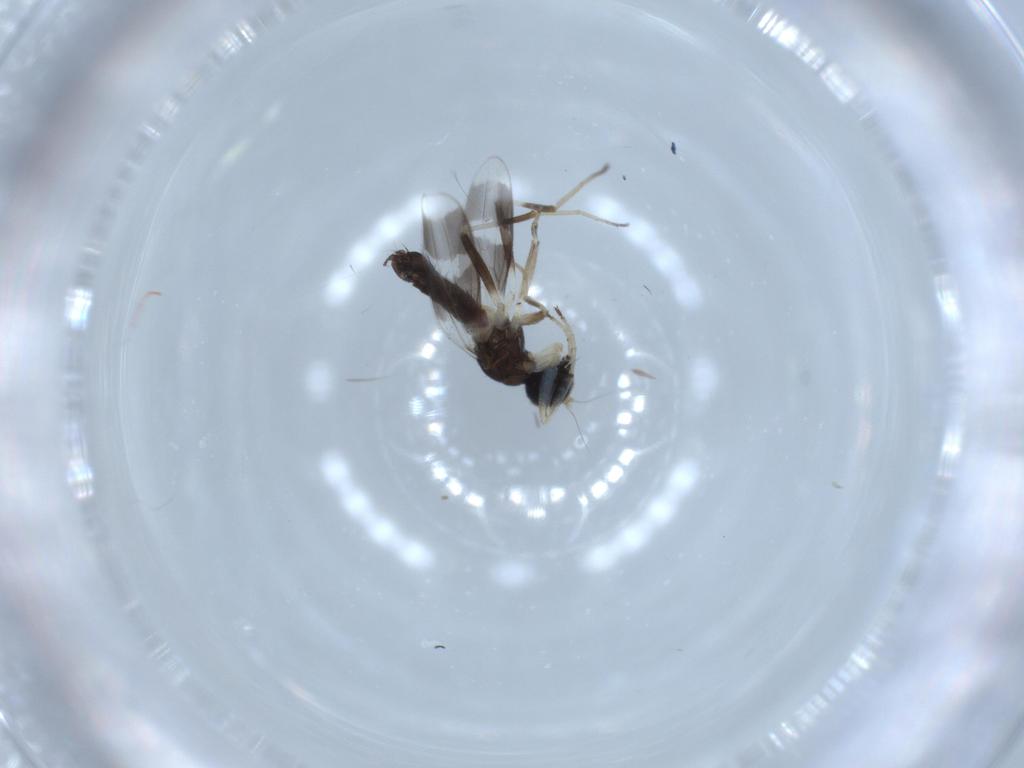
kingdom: Animalia
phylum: Arthropoda
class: Insecta
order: Diptera
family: Hybotidae
